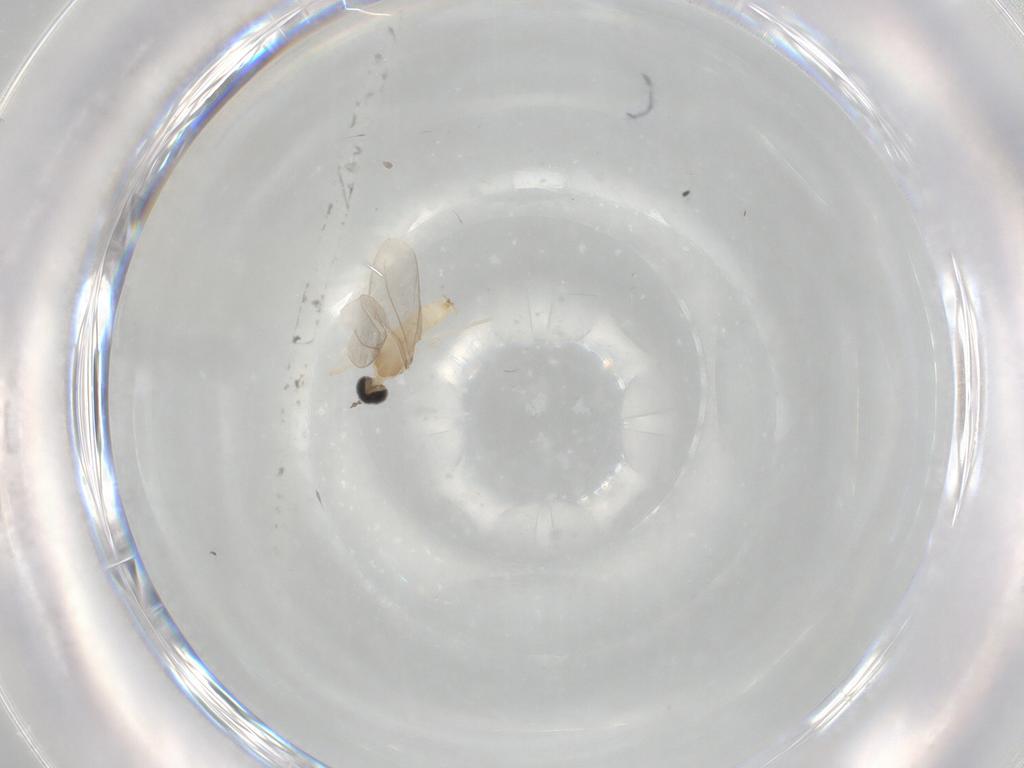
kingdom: Animalia
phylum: Arthropoda
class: Insecta
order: Diptera
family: Cecidomyiidae
